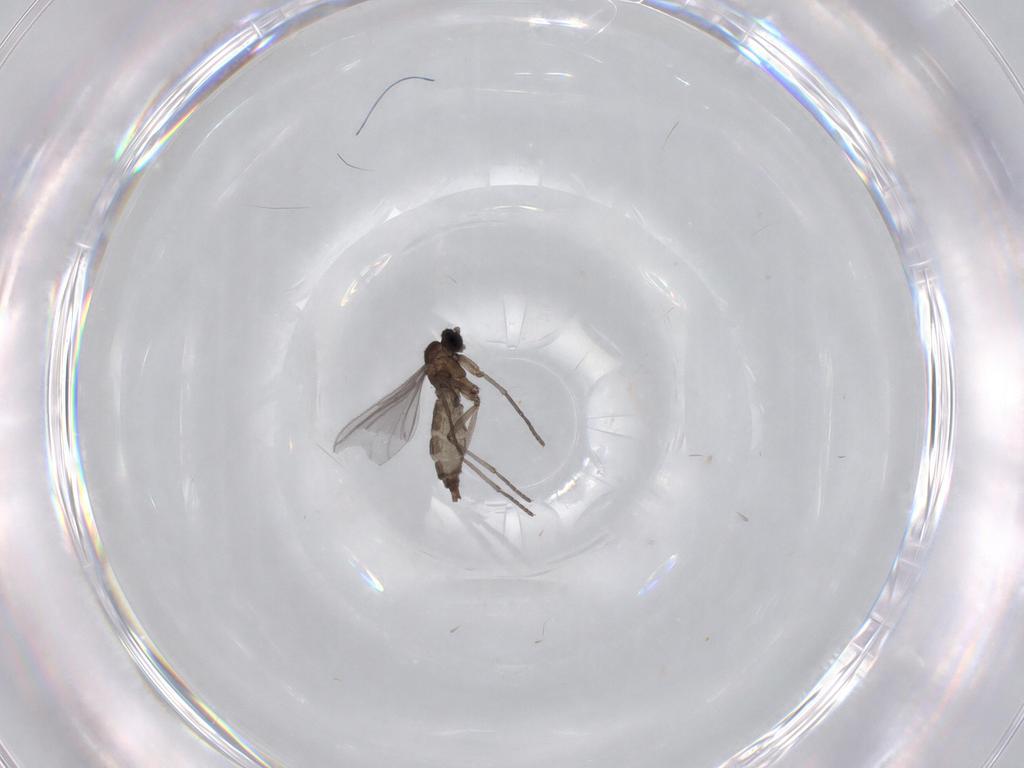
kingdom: Animalia
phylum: Arthropoda
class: Insecta
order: Diptera
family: Sciaridae
